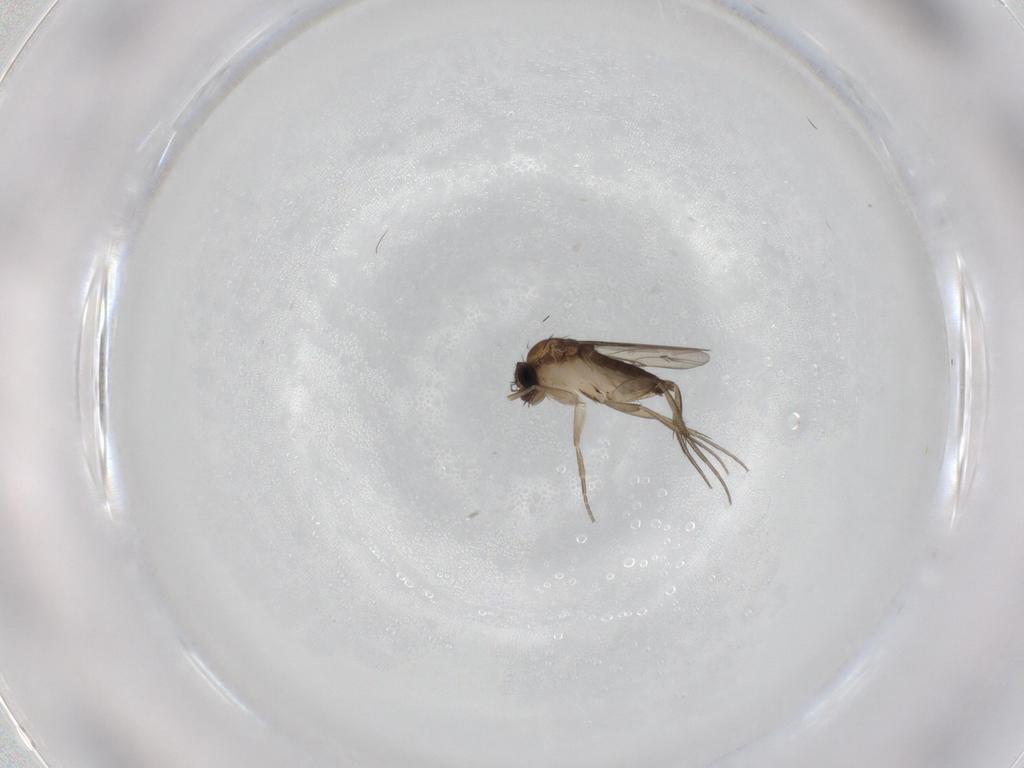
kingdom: Animalia
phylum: Arthropoda
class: Insecta
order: Diptera
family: Phoridae
